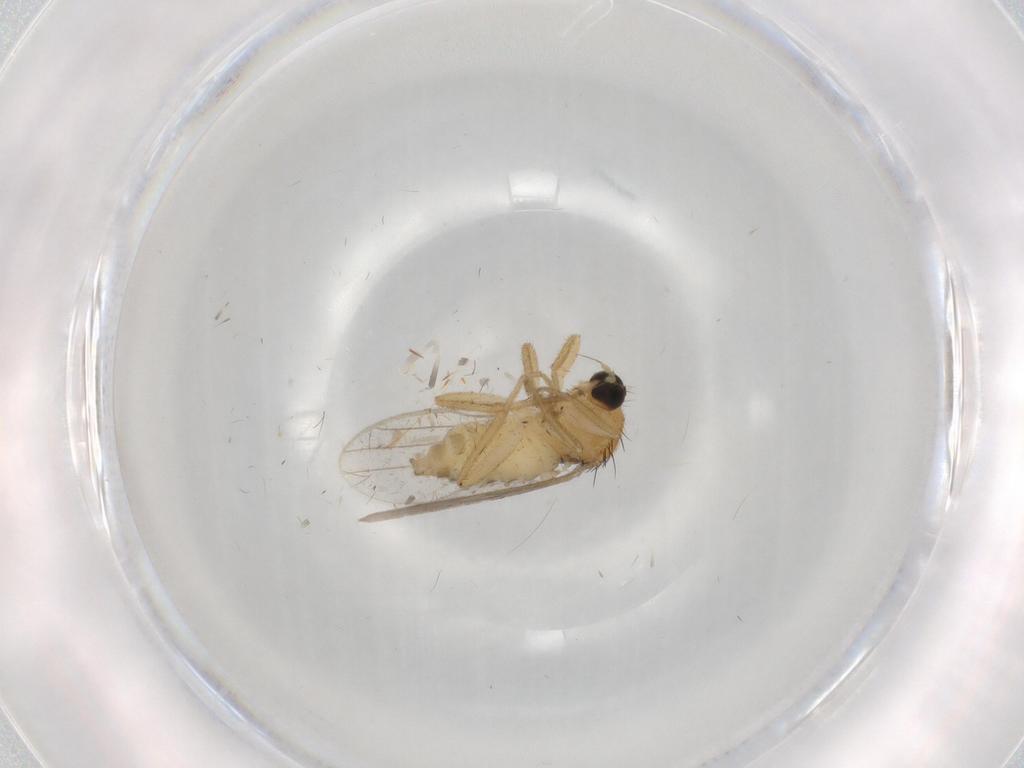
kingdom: Animalia
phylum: Arthropoda
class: Insecta
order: Diptera
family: Hybotidae
